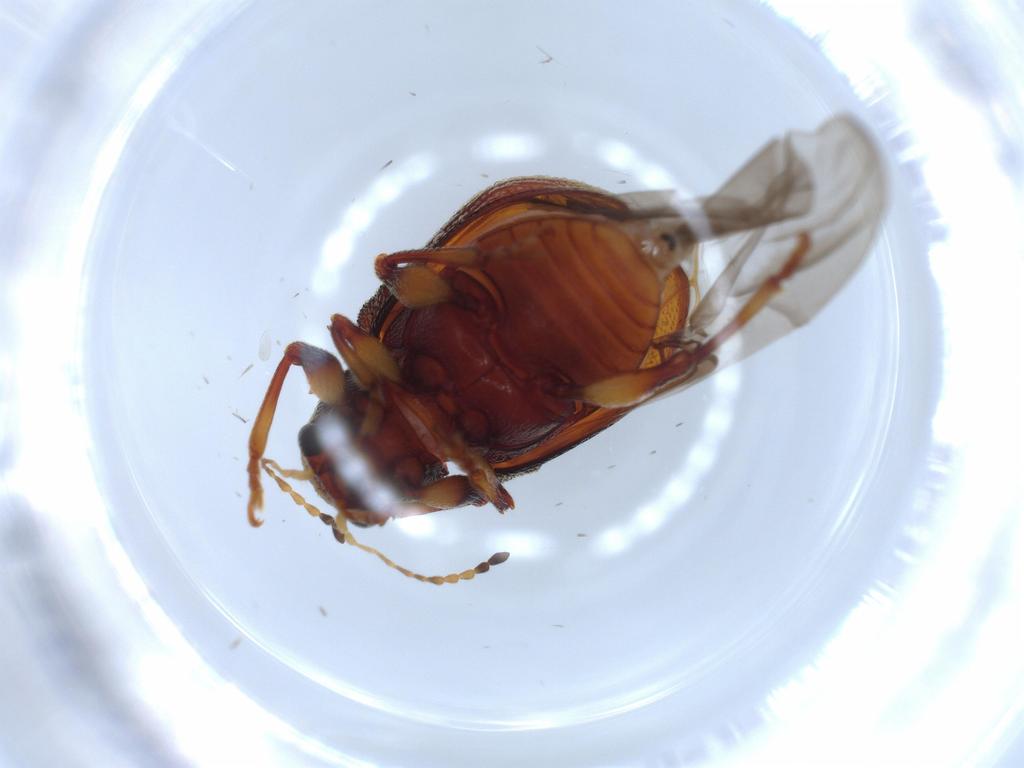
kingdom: Animalia
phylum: Arthropoda
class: Insecta
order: Coleoptera
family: Chrysomelidae
